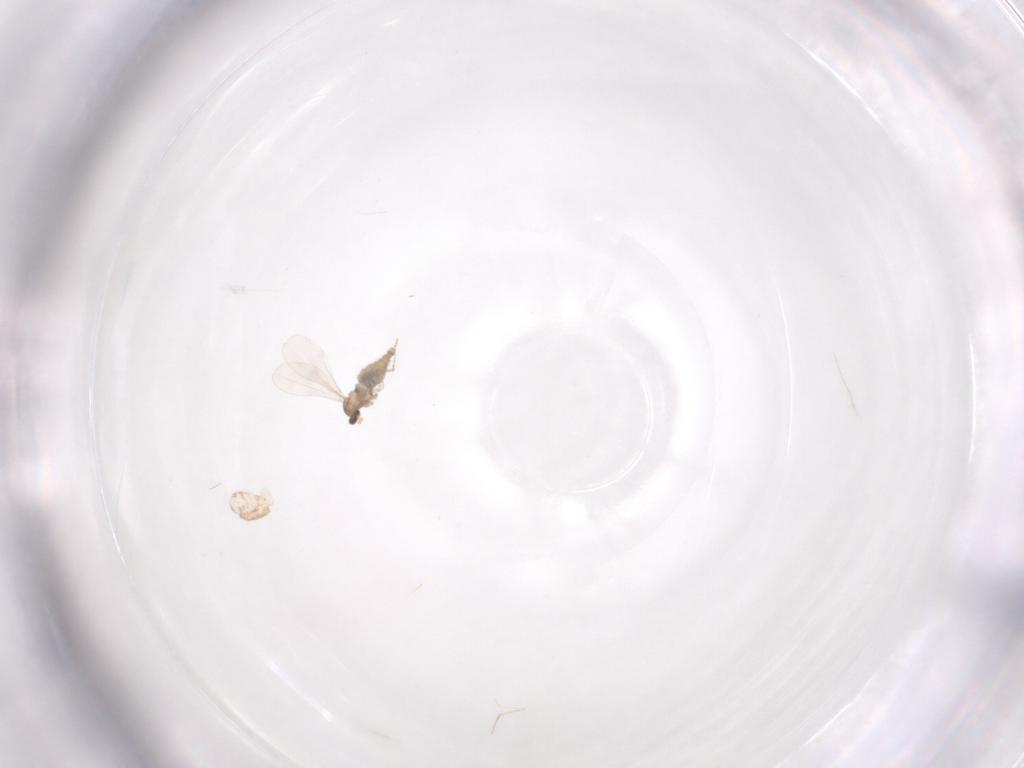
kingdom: Animalia
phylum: Arthropoda
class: Insecta
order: Diptera
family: Cecidomyiidae
